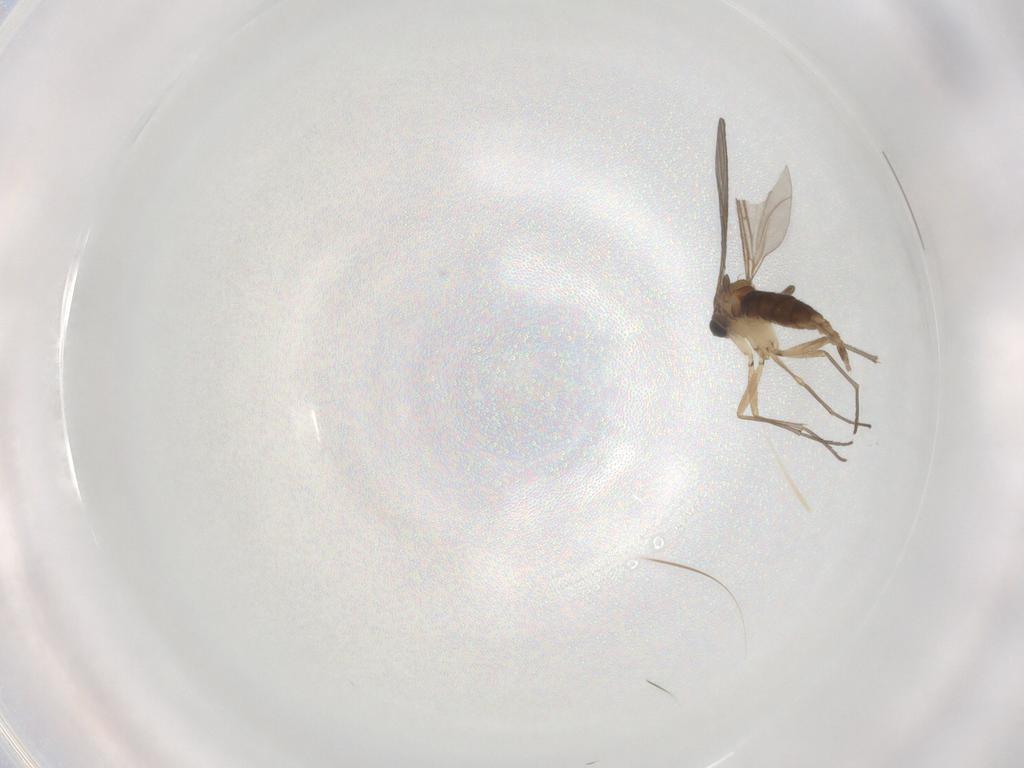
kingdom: Animalia
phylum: Arthropoda
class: Insecta
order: Diptera
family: Sciaridae
